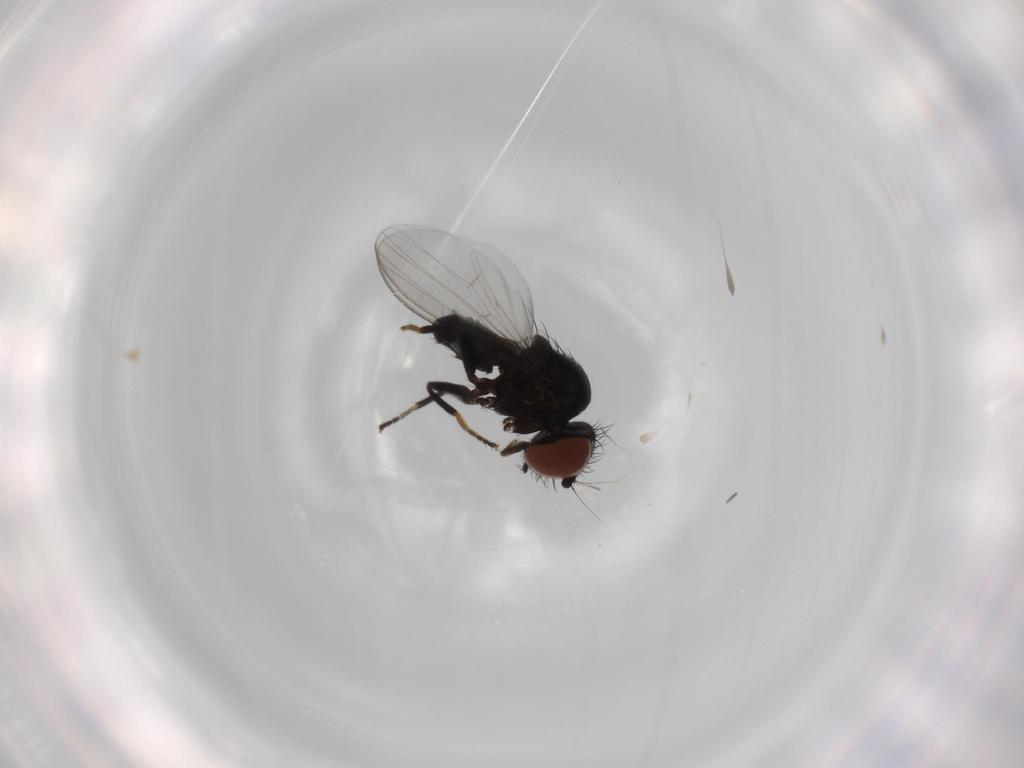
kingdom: Animalia
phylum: Arthropoda
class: Insecta
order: Diptera
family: Milichiidae
